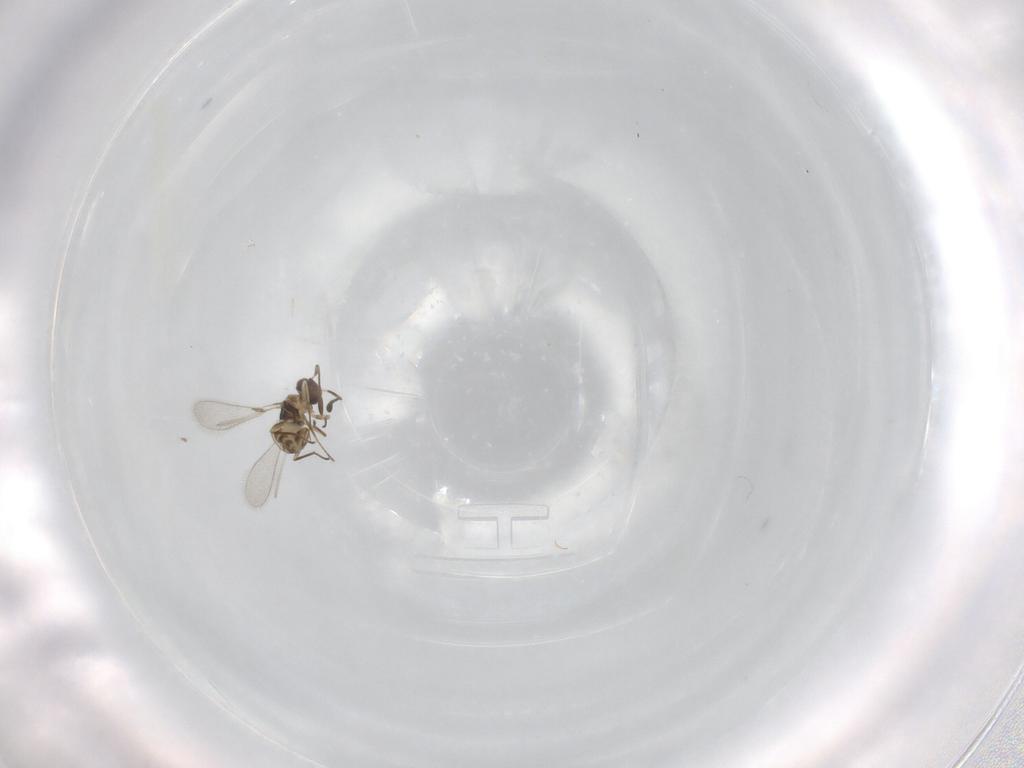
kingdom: Animalia
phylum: Arthropoda
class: Insecta
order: Hymenoptera
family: Mymaridae
